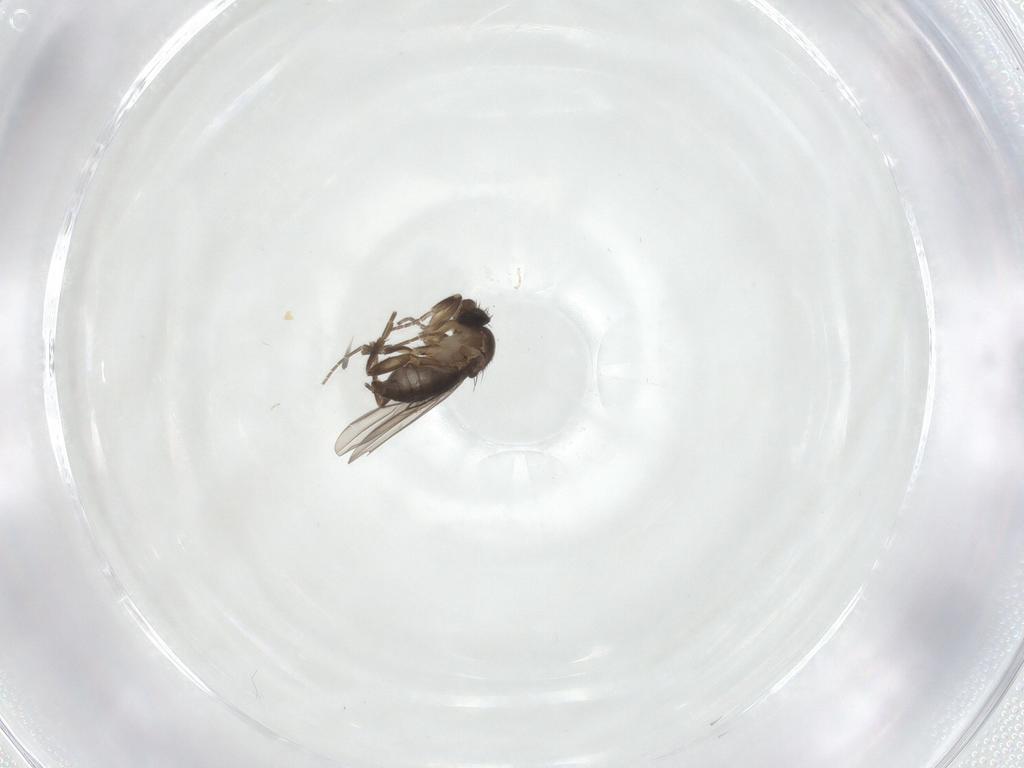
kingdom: Animalia
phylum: Arthropoda
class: Insecta
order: Diptera
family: Phoridae
